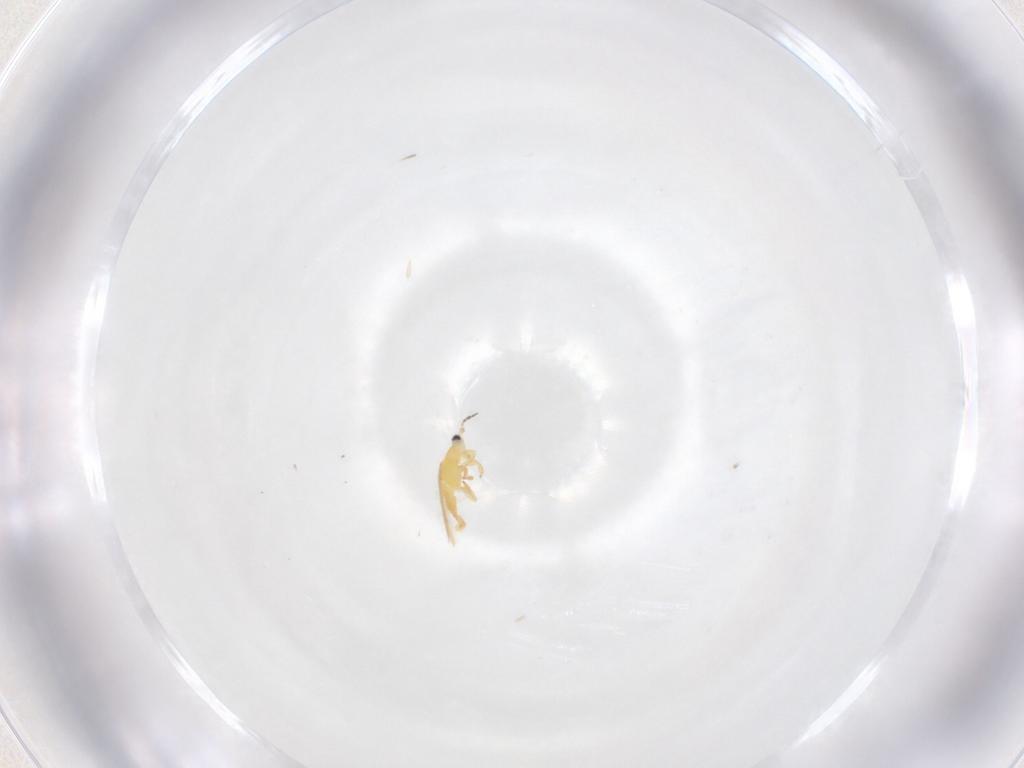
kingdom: Animalia
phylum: Arthropoda
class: Insecta
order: Thysanoptera
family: Melanthripidae
